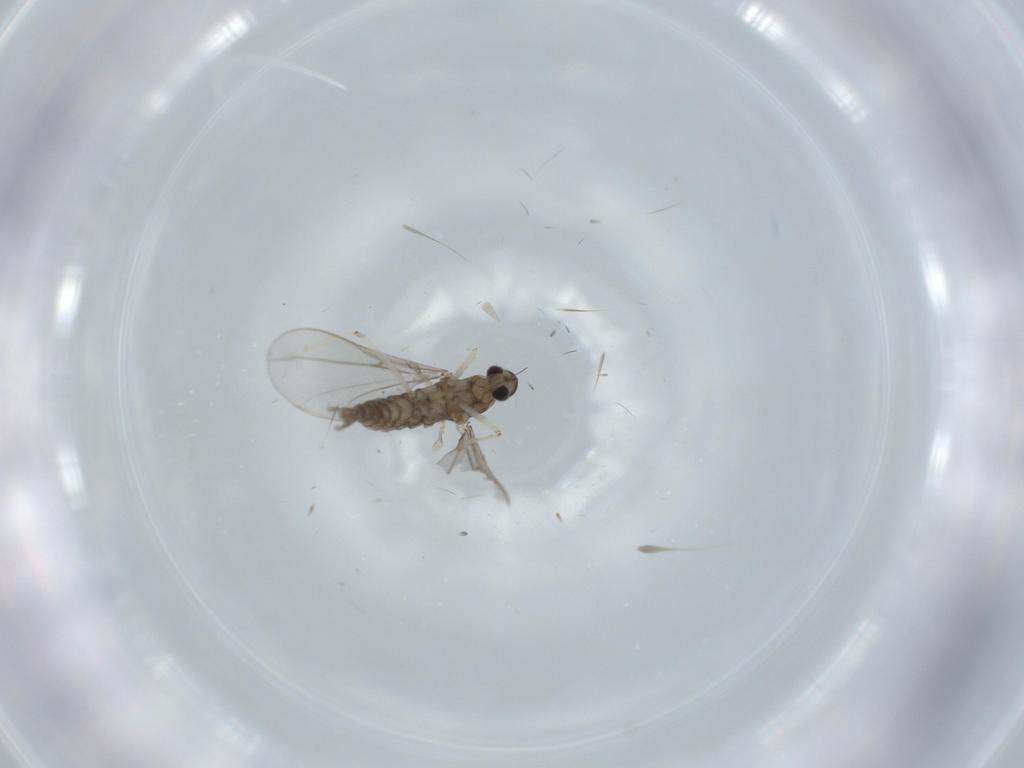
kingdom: Animalia
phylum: Arthropoda
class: Insecta
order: Diptera
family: Cecidomyiidae
